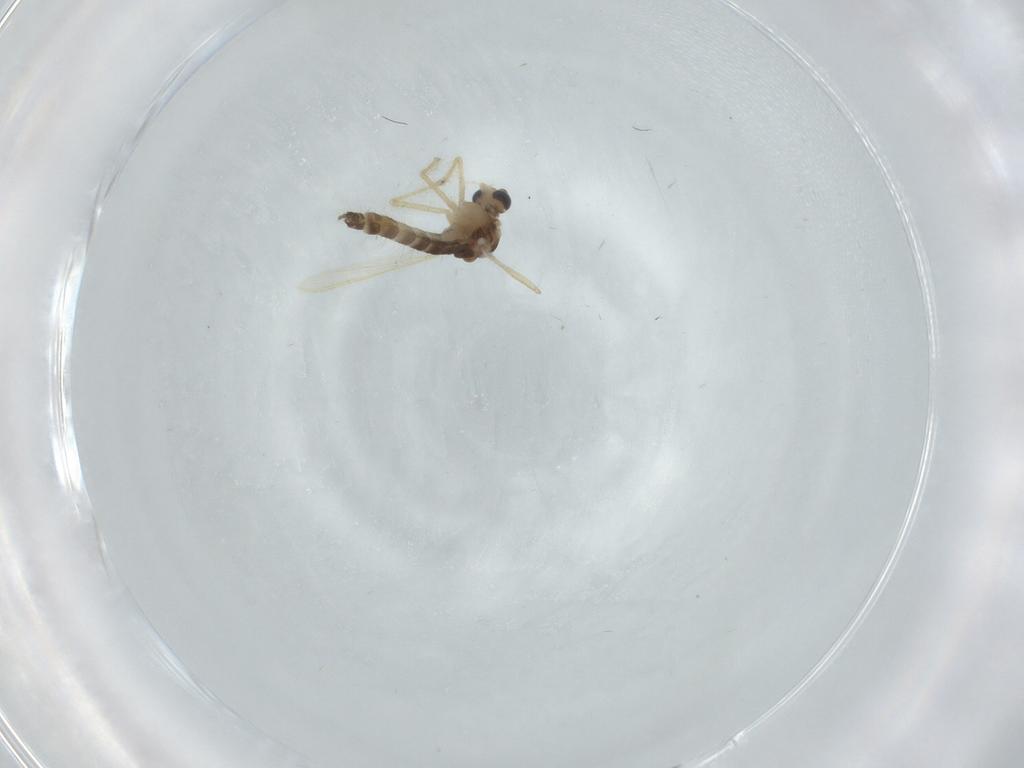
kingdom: Animalia
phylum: Arthropoda
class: Insecta
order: Diptera
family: Chironomidae
